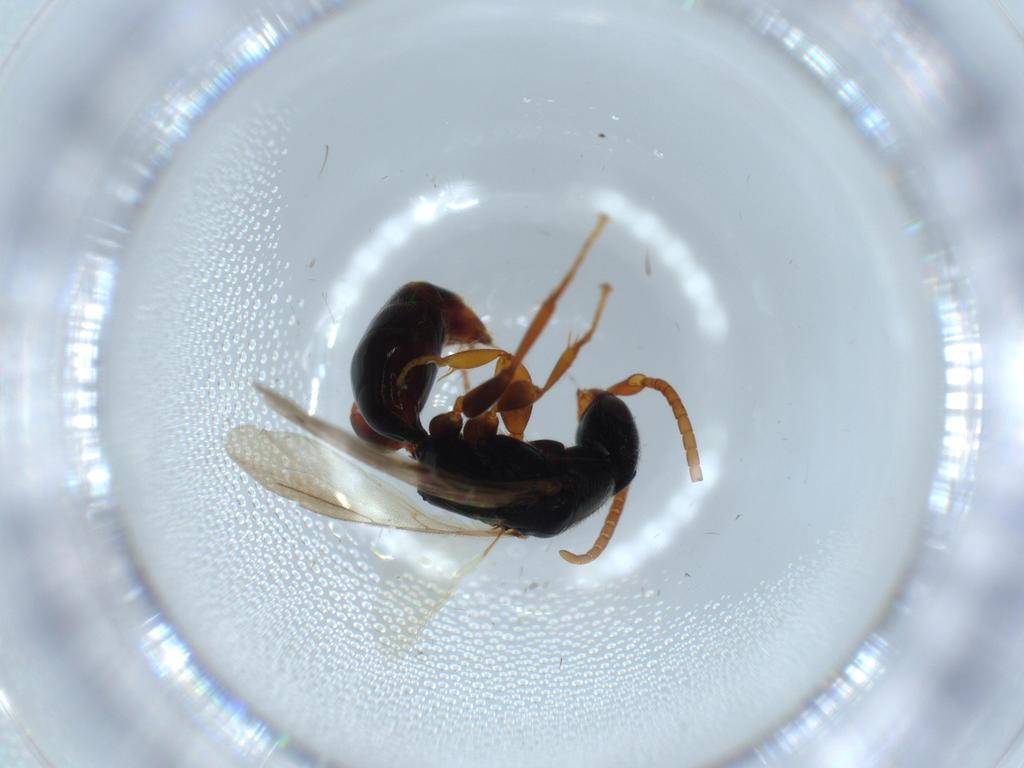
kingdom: Animalia
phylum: Arthropoda
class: Insecta
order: Hymenoptera
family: Bethylidae
